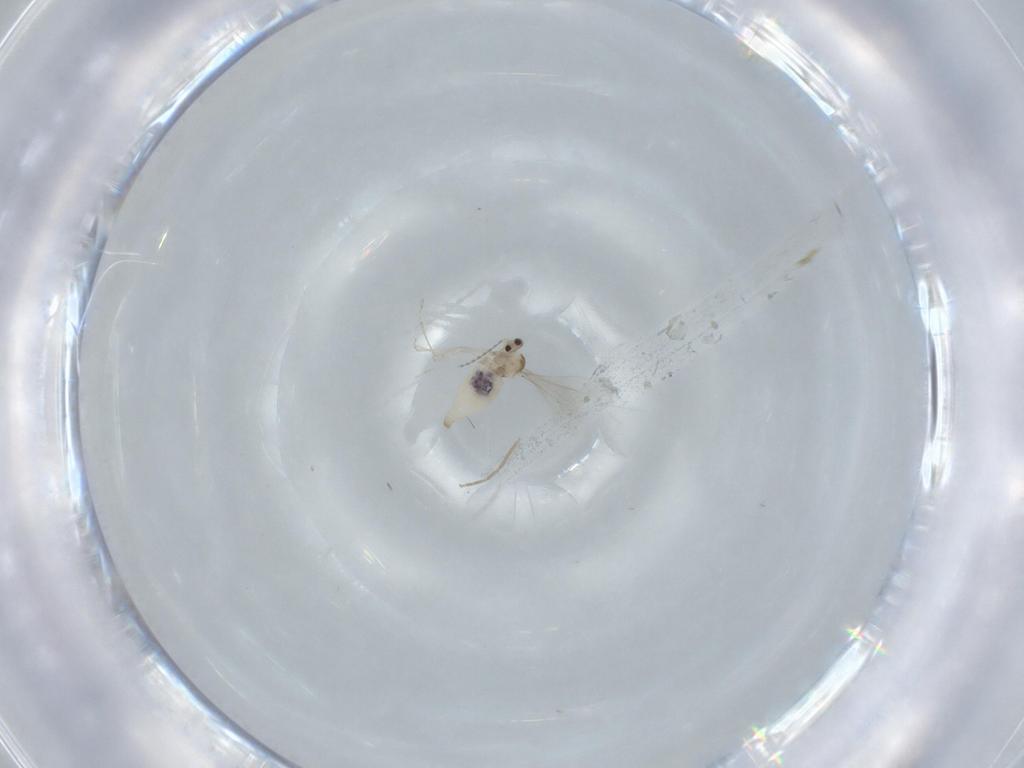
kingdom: Animalia
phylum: Arthropoda
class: Insecta
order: Diptera
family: Cecidomyiidae
